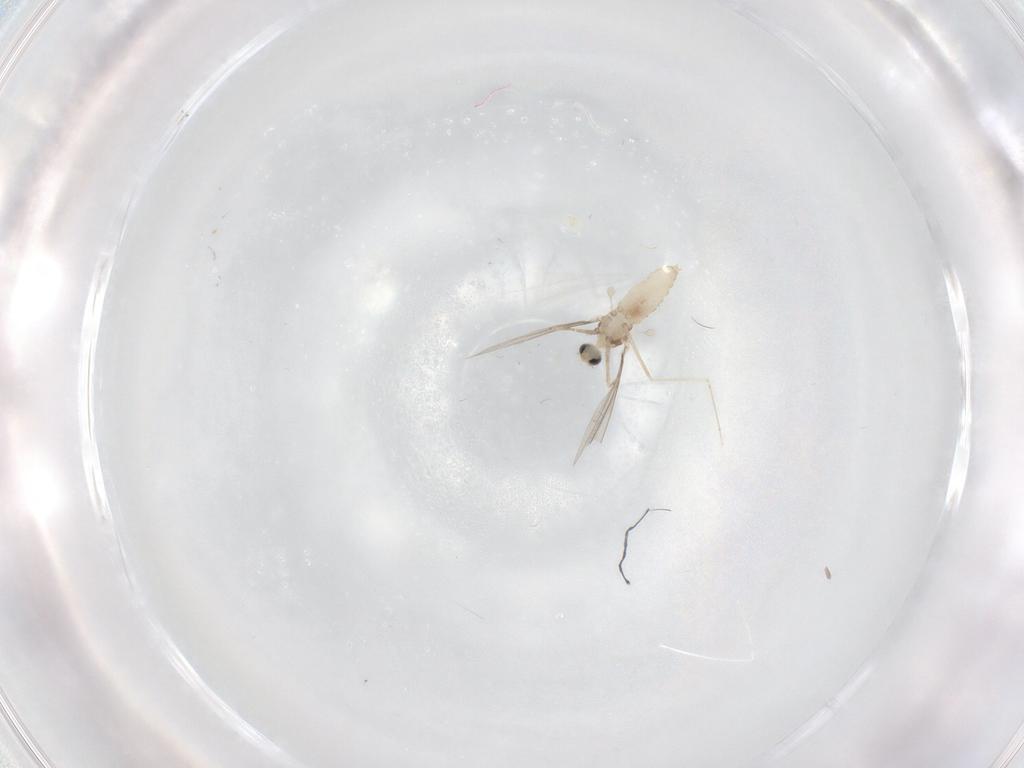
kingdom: Animalia
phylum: Arthropoda
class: Insecta
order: Diptera
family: Cecidomyiidae
